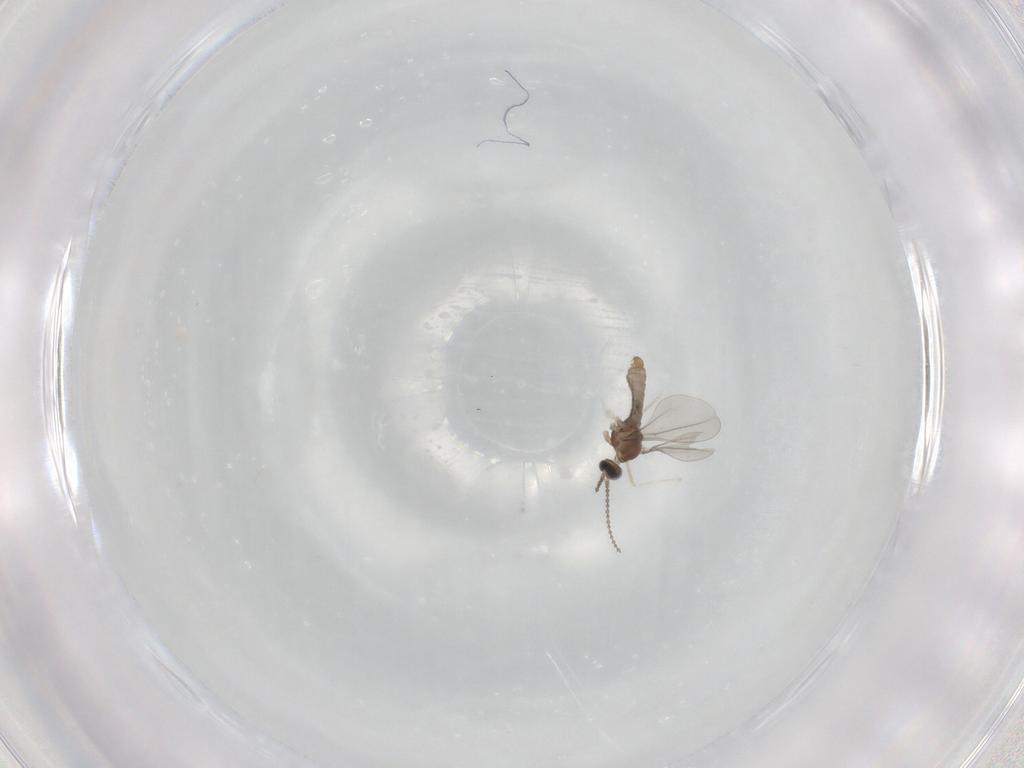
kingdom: Animalia
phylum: Arthropoda
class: Insecta
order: Diptera
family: Cecidomyiidae
